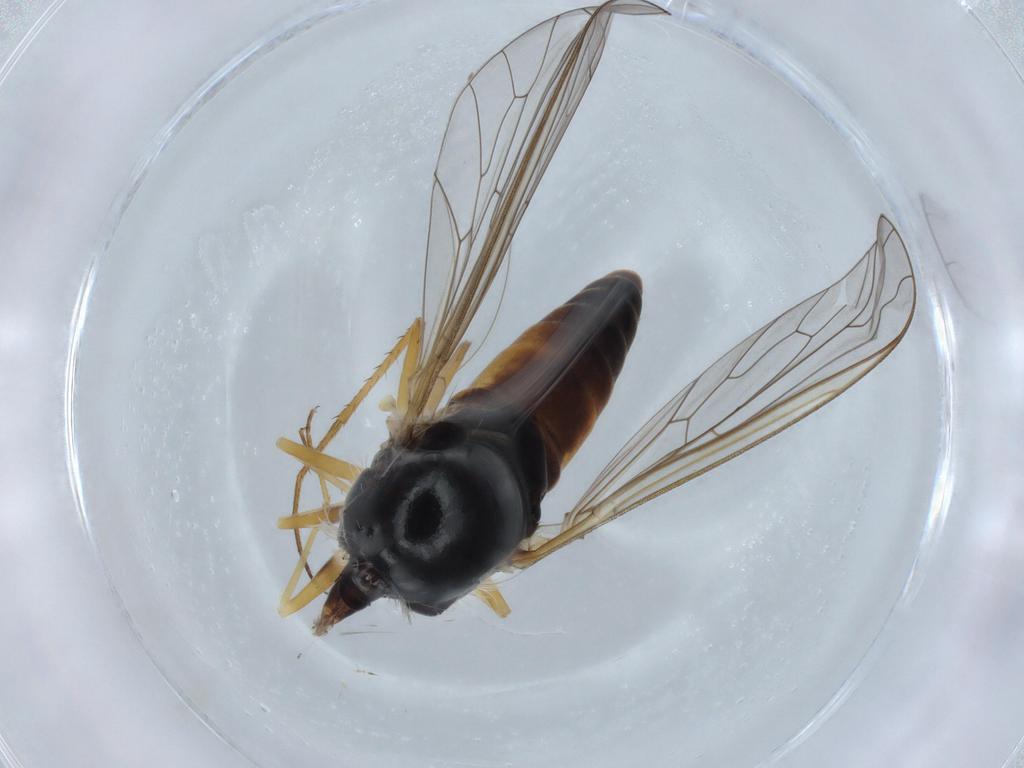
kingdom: Animalia
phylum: Arthropoda
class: Insecta
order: Diptera
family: Bombyliidae
